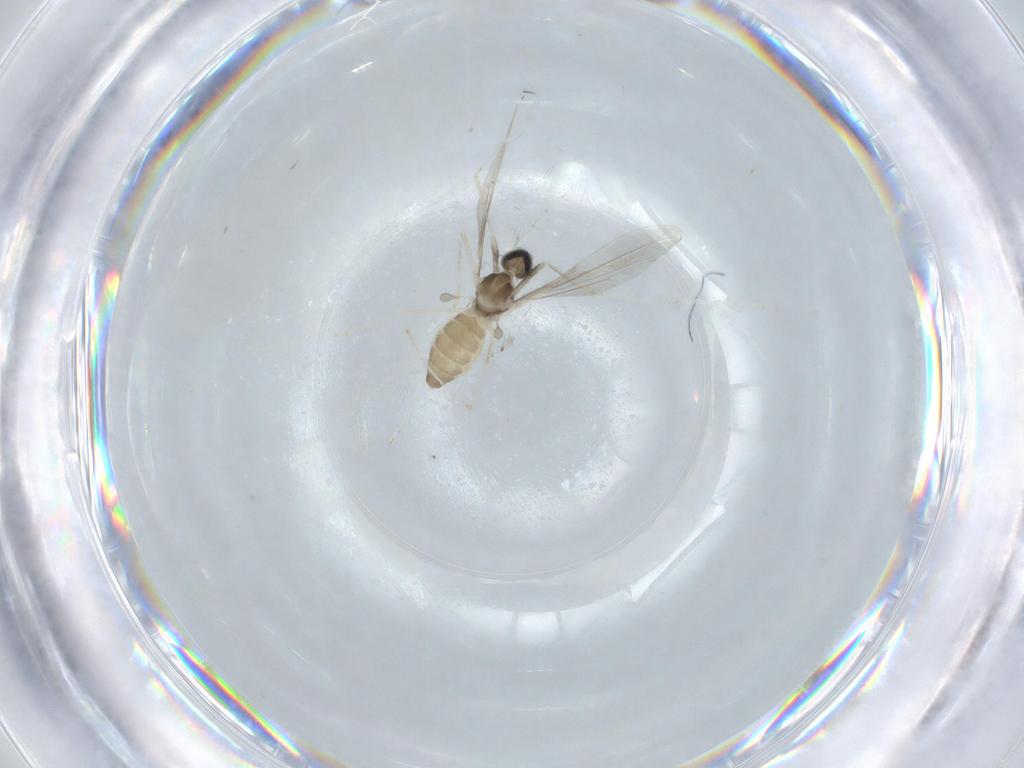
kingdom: Animalia
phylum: Arthropoda
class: Insecta
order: Diptera
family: Cecidomyiidae
